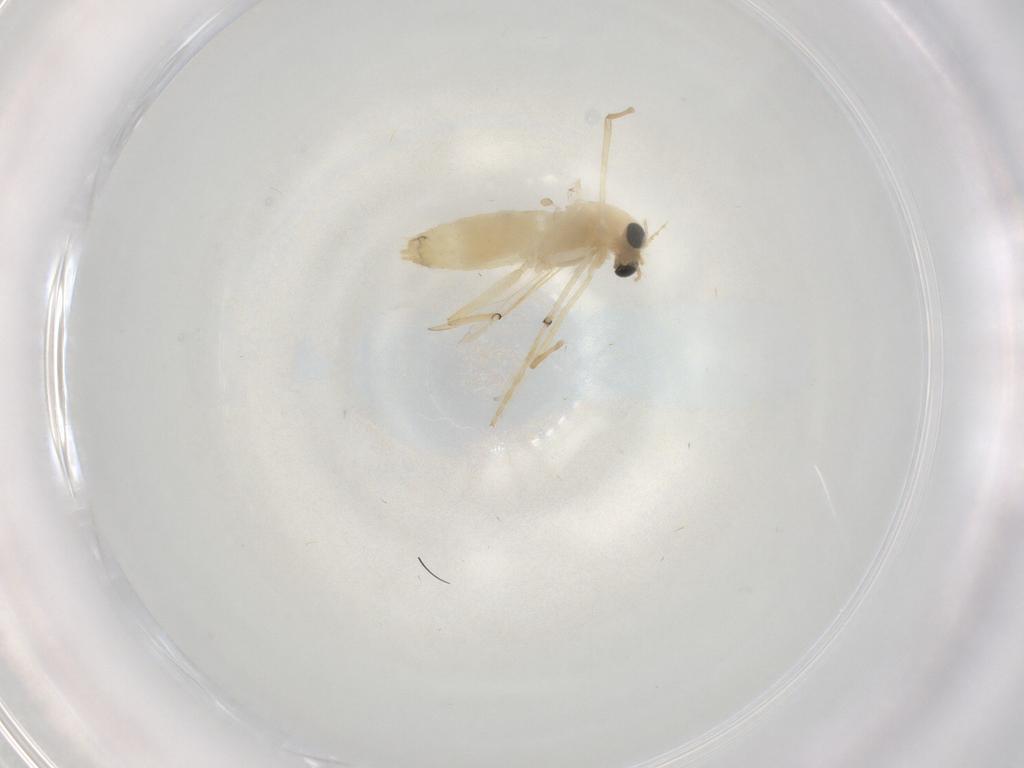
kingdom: Animalia
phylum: Arthropoda
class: Insecta
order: Diptera
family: Chironomidae
